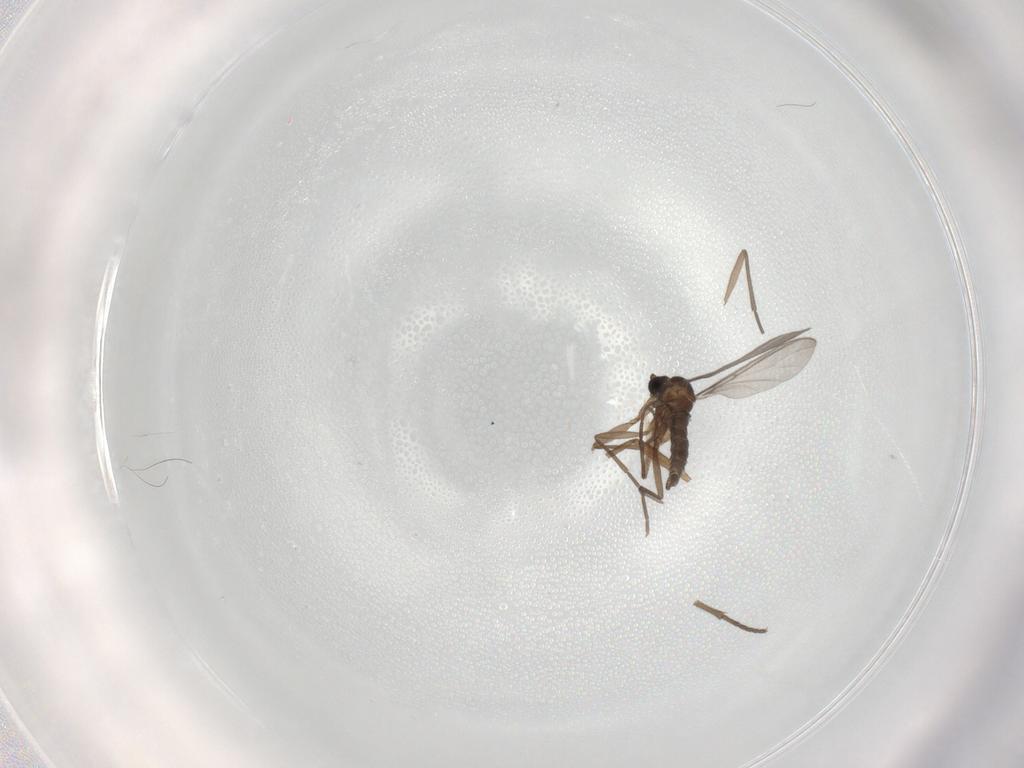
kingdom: Animalia
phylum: Arthropoda
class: Insecta
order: Diptera
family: Sciaridae
